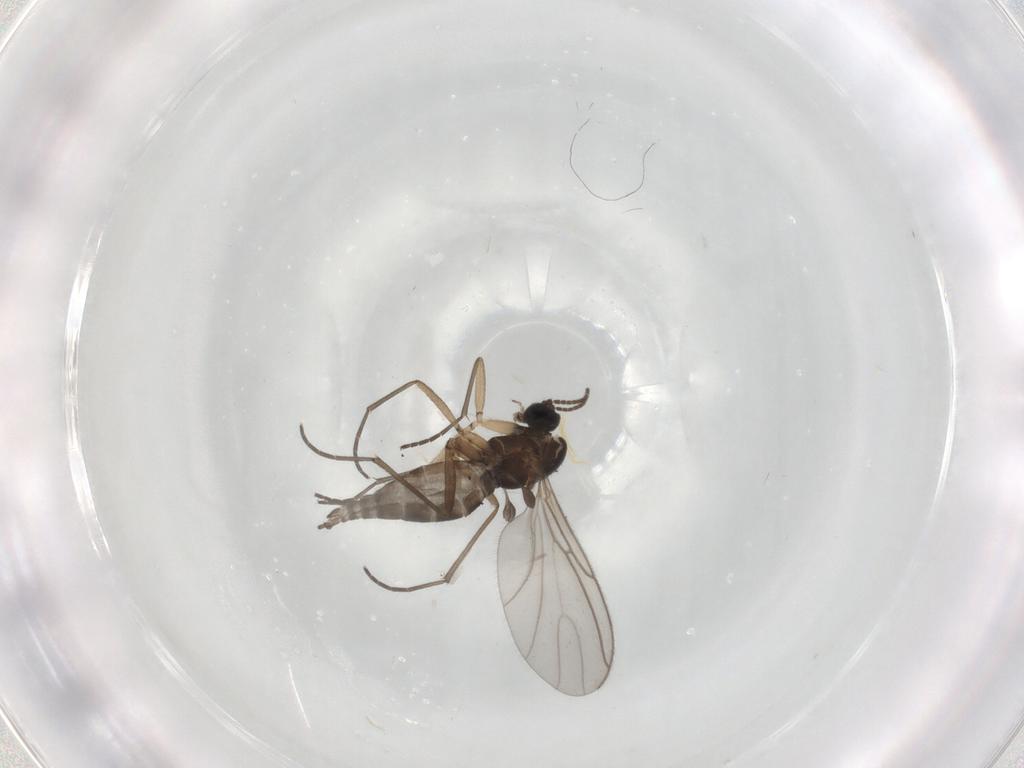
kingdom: Animalia
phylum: Arthropoda
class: Insecta
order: Diptera
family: Sciaridae
